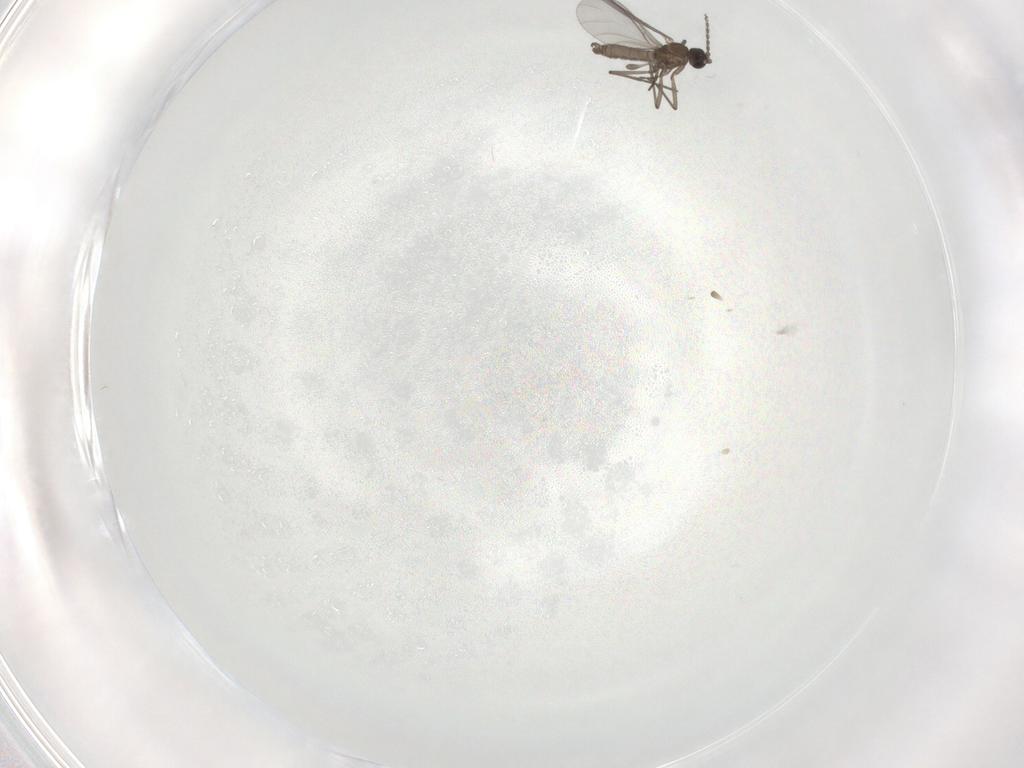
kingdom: Animalia
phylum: Arthropoda
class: Insecta
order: Diptera
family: Sciaridae
